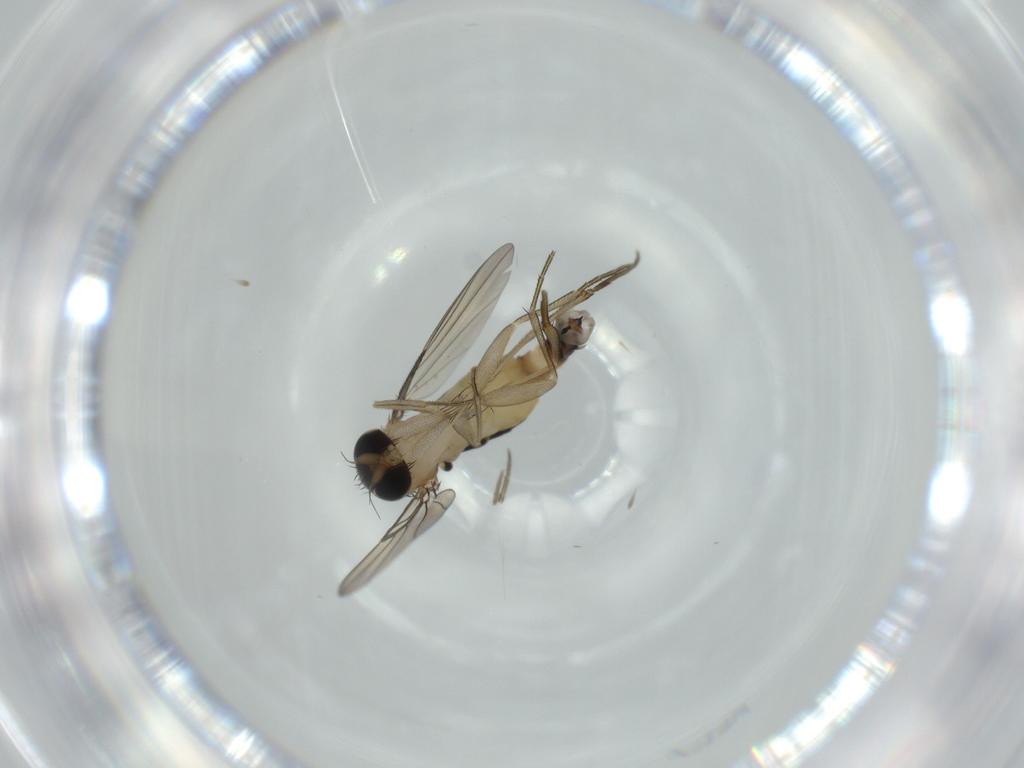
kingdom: Animalia
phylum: Arthropoda
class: Insecta
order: Diptera
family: Phoridae
